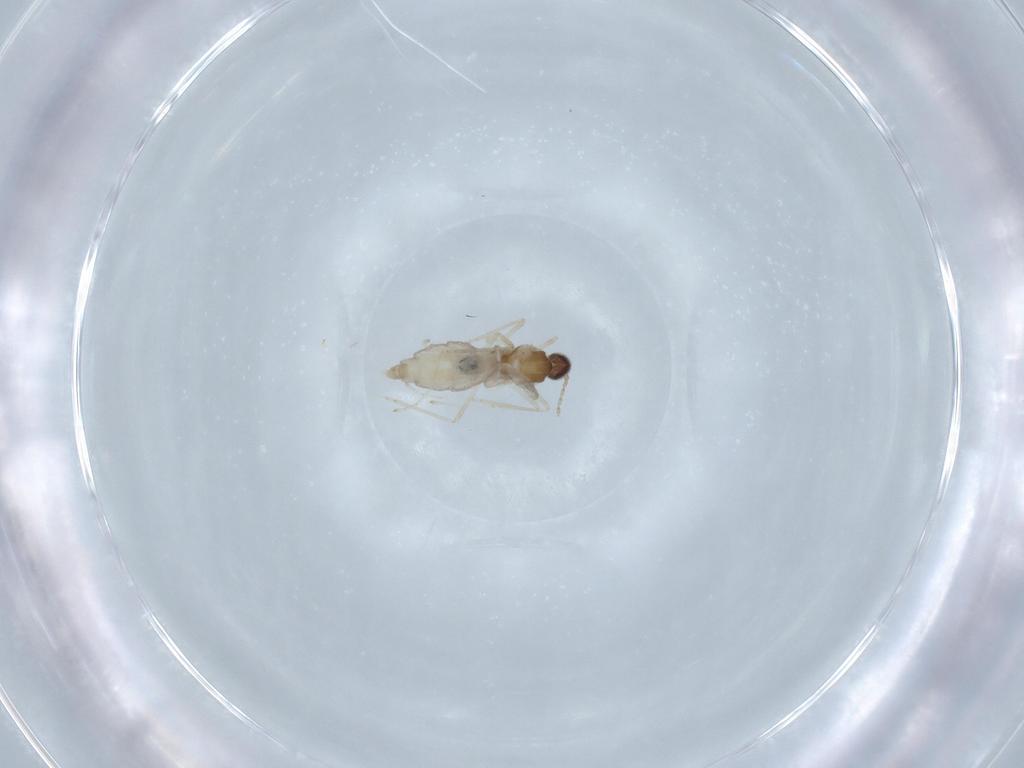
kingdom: Animalia
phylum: Arthropoda
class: Insecta
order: Diptera
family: Cecidomyiidae
